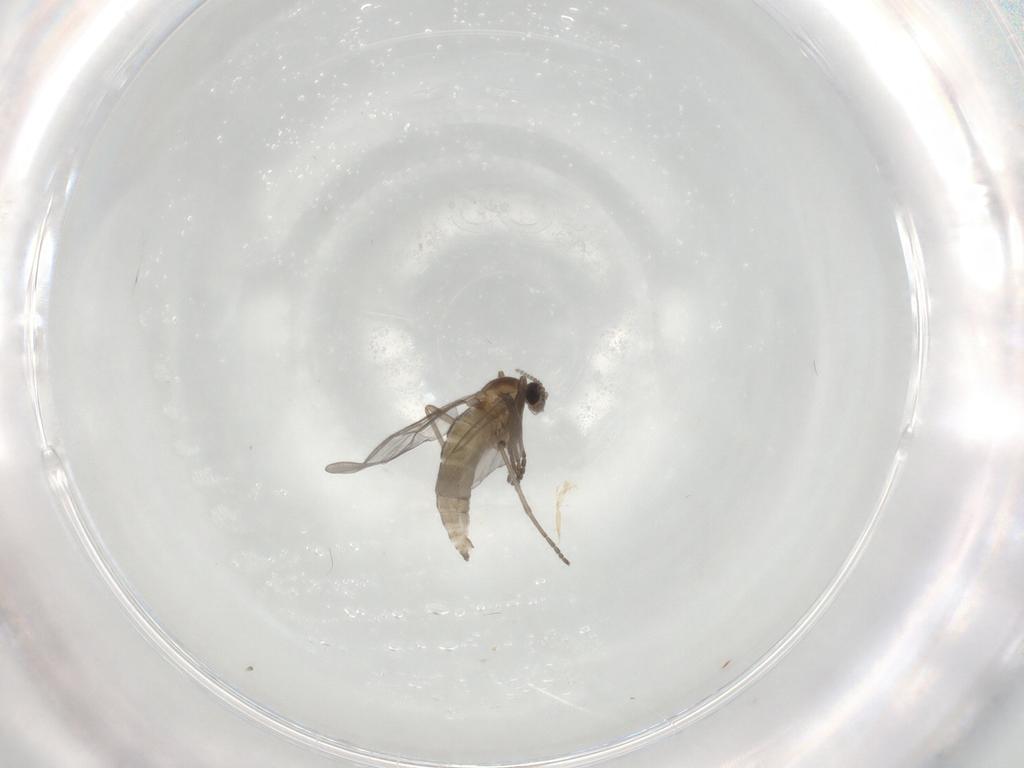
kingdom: Animalia
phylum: Arthropoda
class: Insecta
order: Diptera
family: Cecidomyiidae
